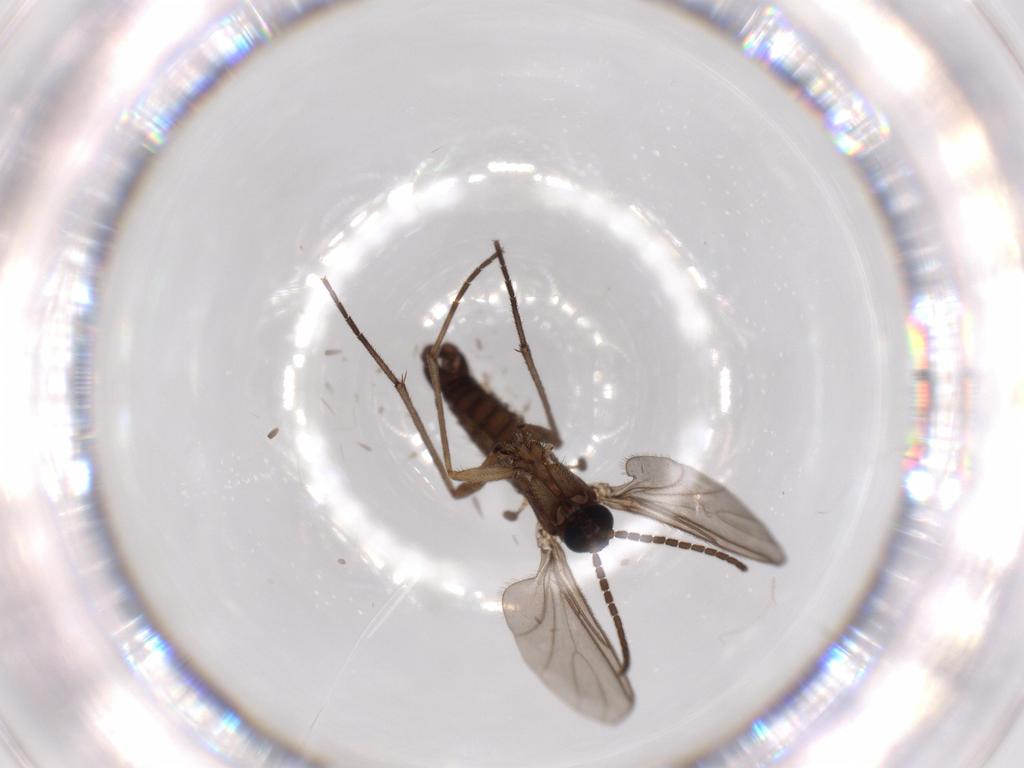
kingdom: Animalia
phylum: Arthropoda
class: Insecta
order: Diptera
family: Sciaridae
